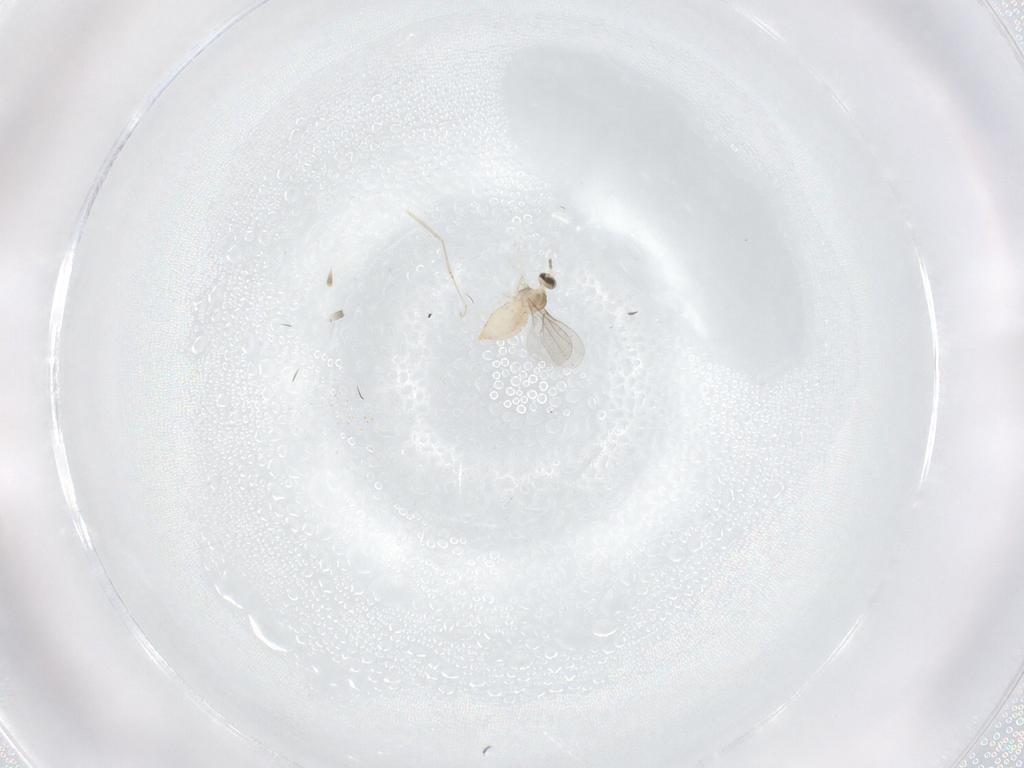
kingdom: Animalia
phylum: Arthropoda
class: Insecta
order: Diptera
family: Cecidomyiidae
